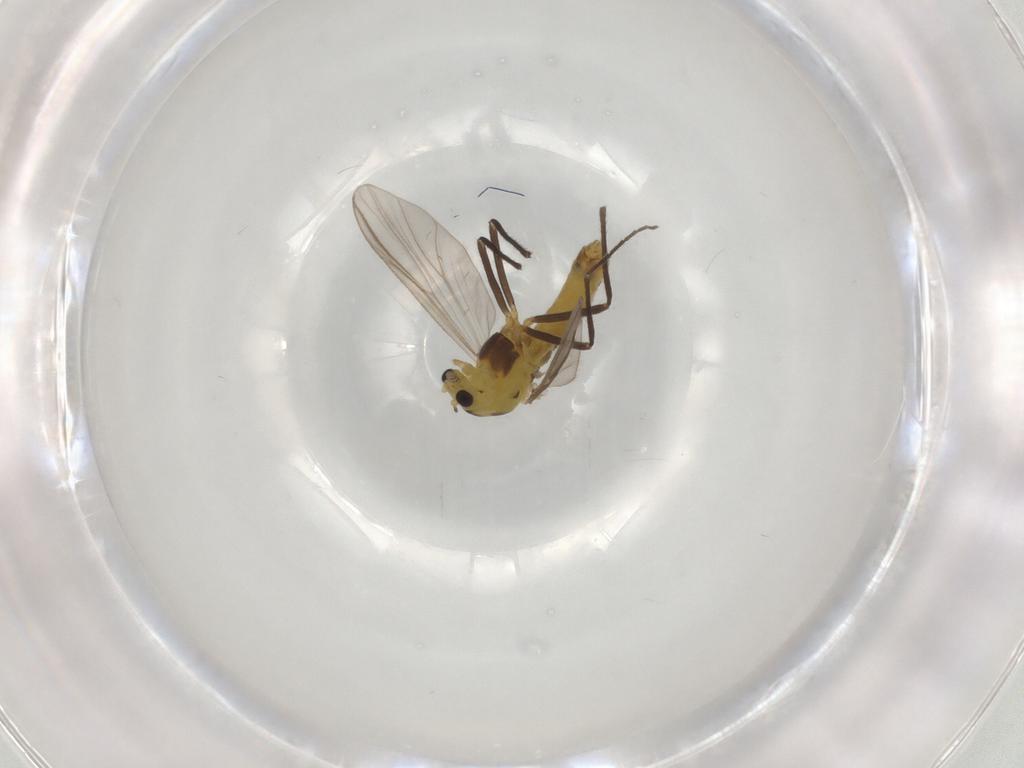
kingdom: Animalia
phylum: Arthropoda
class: Insecta
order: Diptera
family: Chironomidae
